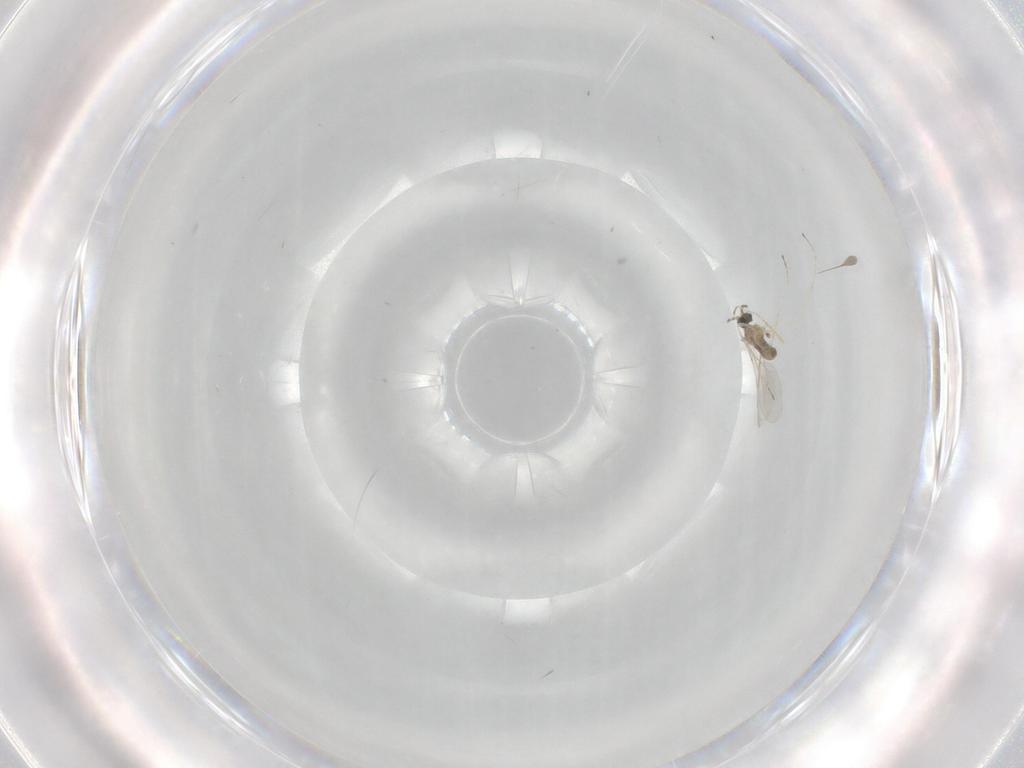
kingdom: Animalia
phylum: Arthropoda
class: Insecta
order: Diptera
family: Cecidomyiidae
